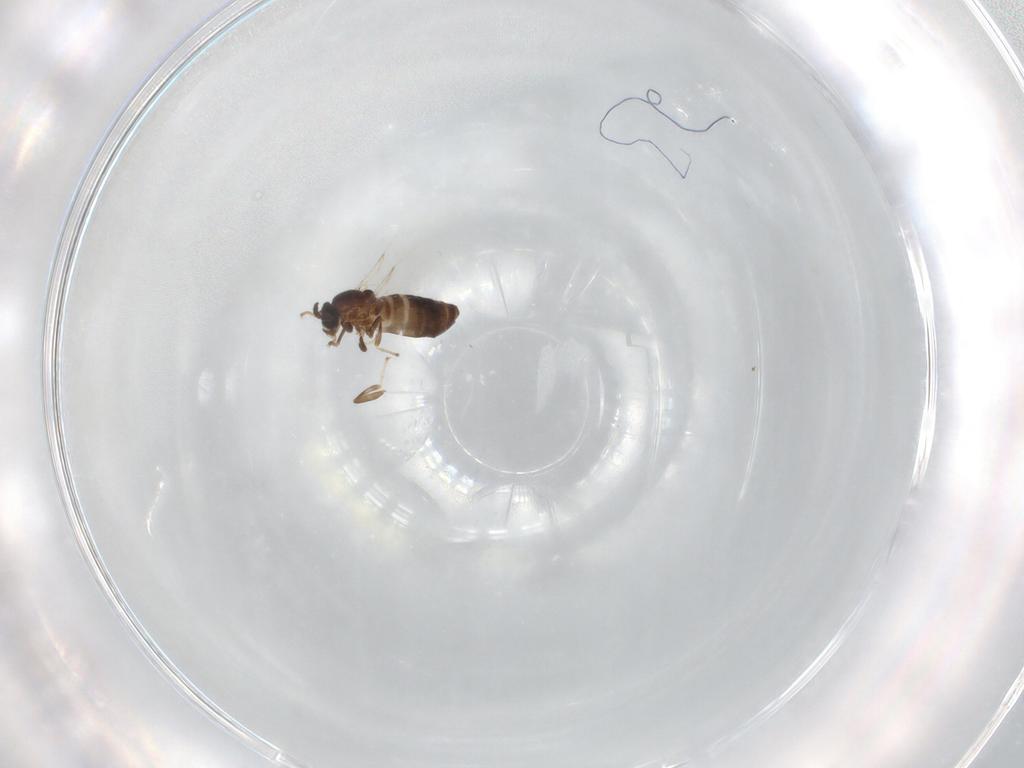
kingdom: Animalia
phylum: Arthropoda
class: Insecta
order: Diptera
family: Scatopsidae
